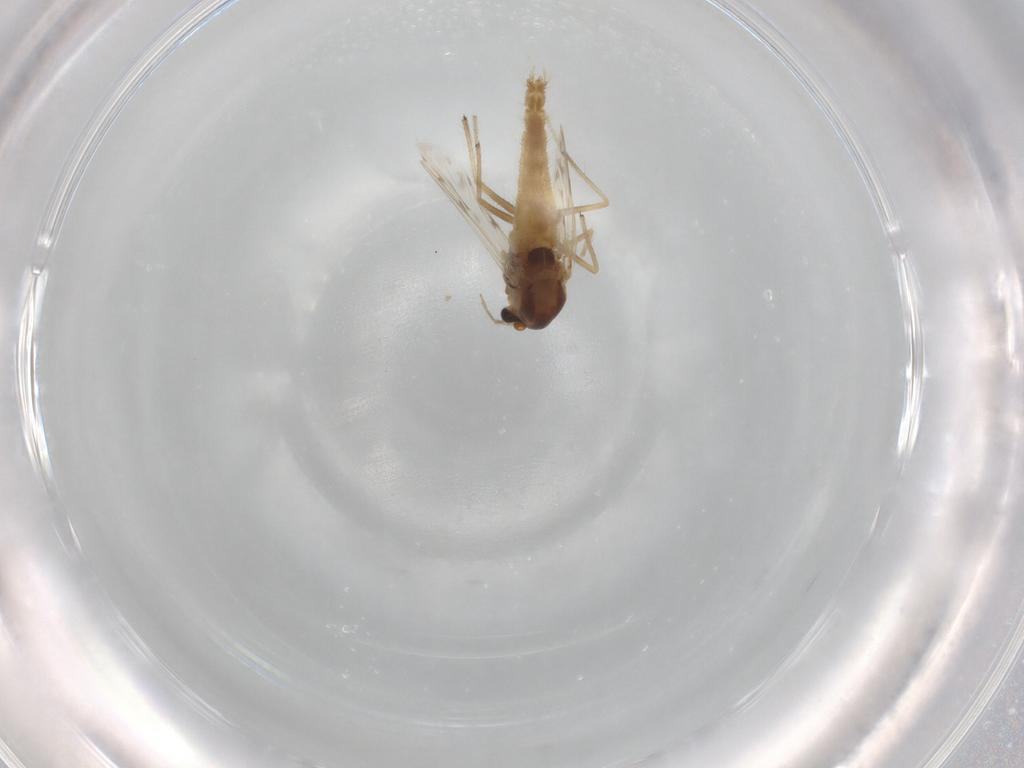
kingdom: Animalia
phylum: Arthropoda
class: Insecta
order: Diptera
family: Chironomidae
